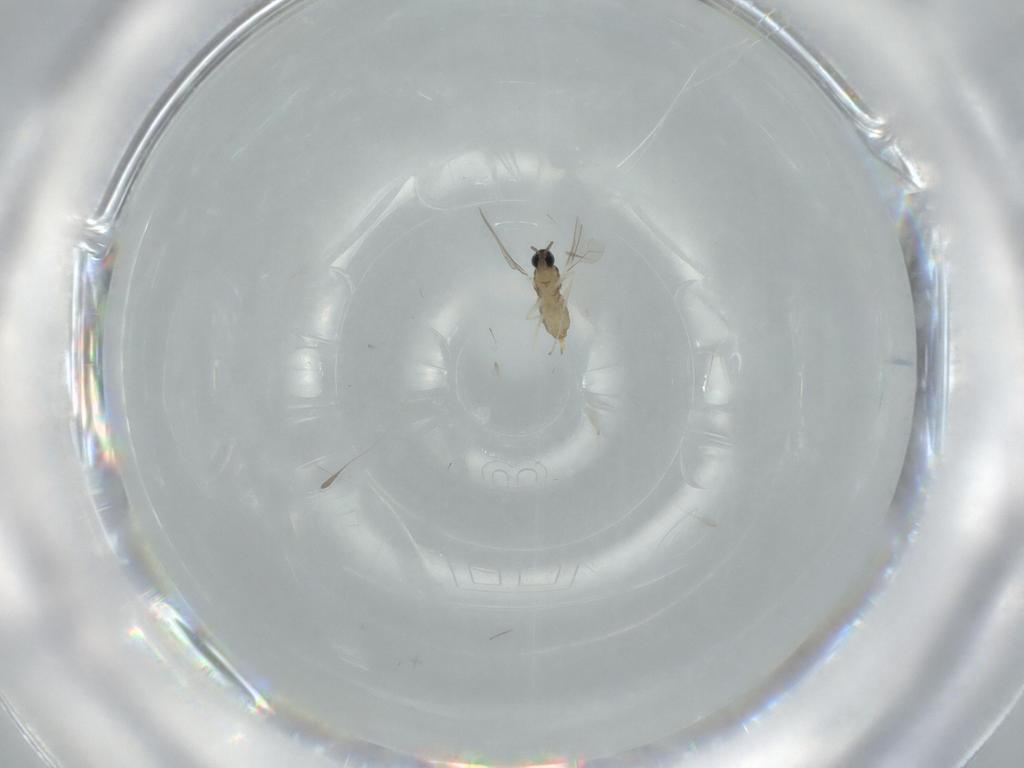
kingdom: Animalia
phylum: Arthropoda
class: Insecta
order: Diptera
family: Cecidomyiidae
